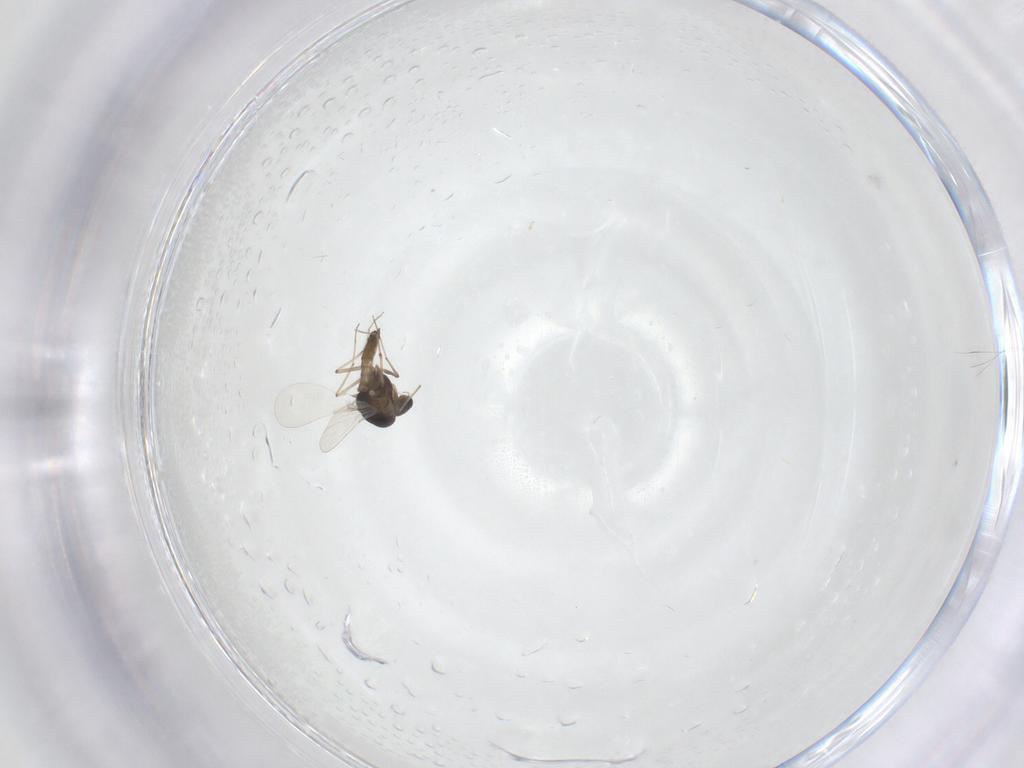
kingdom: Animalia
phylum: Arthropoda
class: Insecta
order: Diptera
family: Chironomidae
